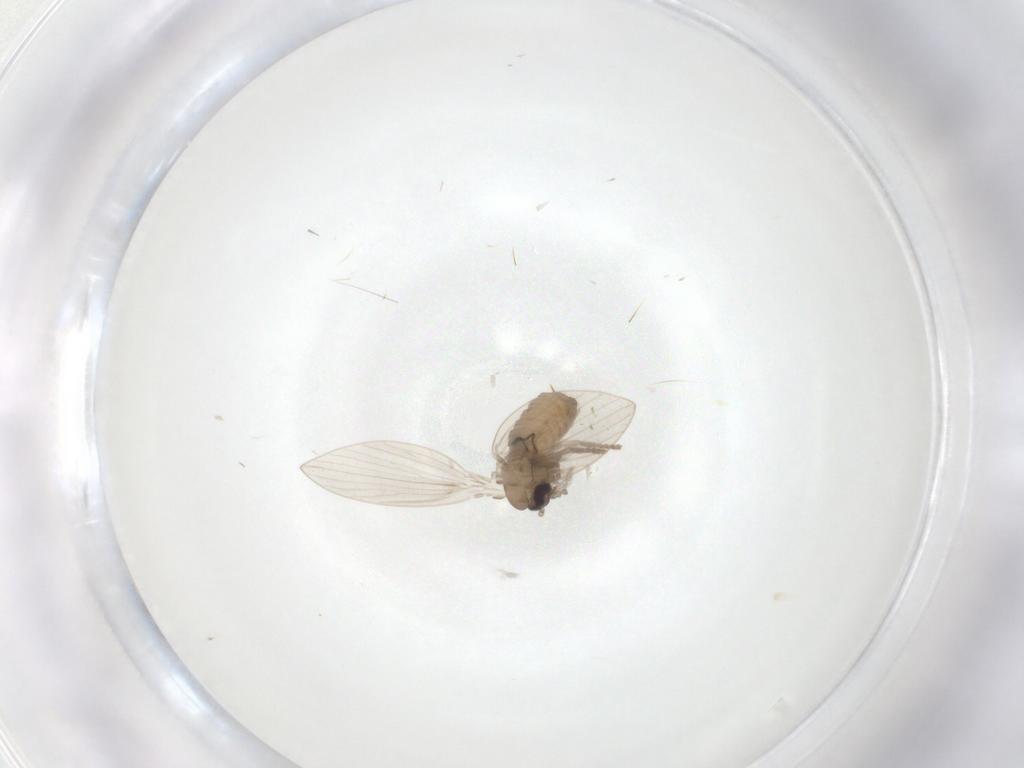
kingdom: Animalia
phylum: Arthropoda
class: Insecta
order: Diptera
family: Psychodidae
